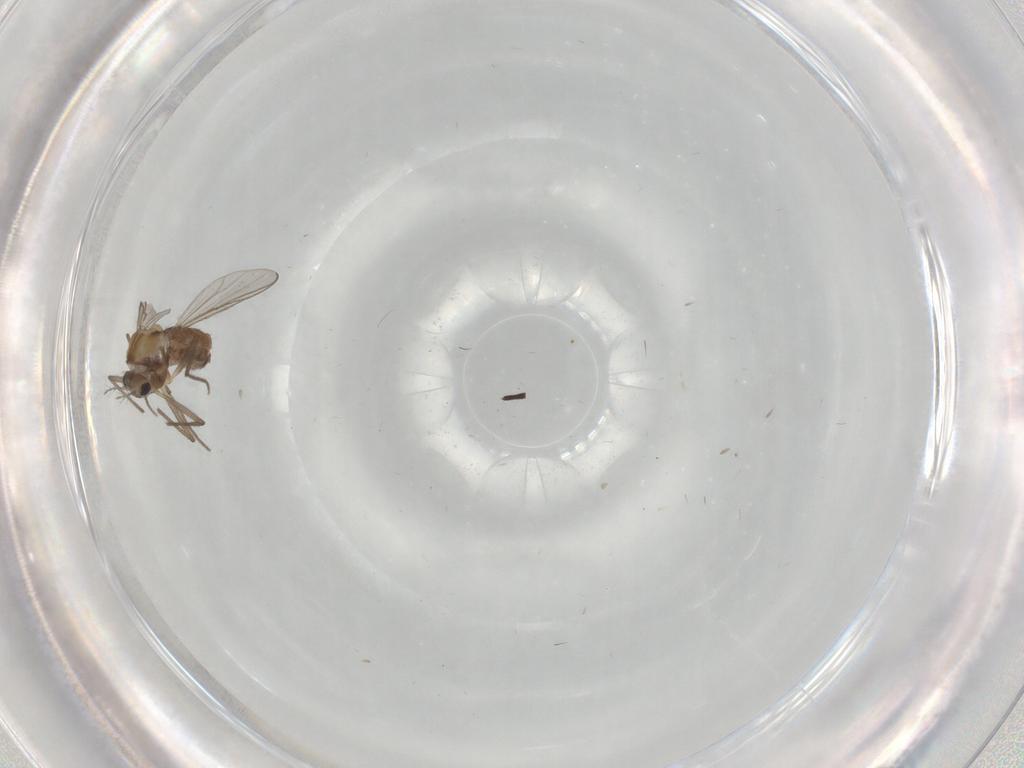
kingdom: Animalia
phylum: Arthropoda
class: Insecta
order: Diptera
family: Chironomidae
